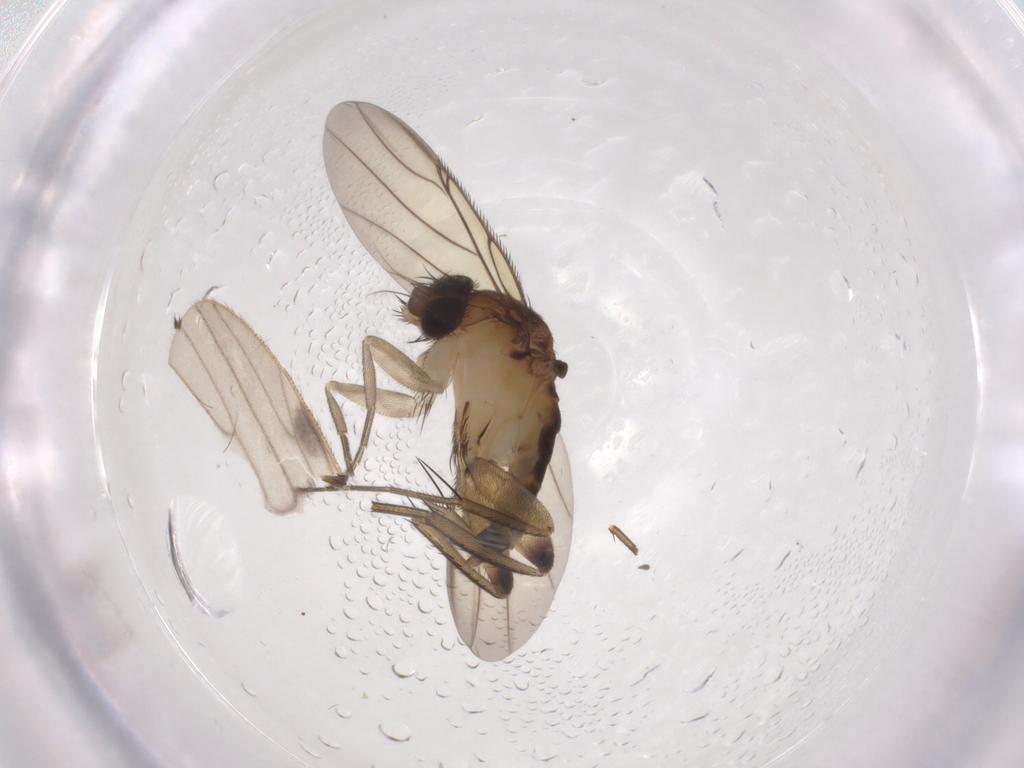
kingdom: Animalia
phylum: Arthropoda
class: Insecta
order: Diptera
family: Phoridae
